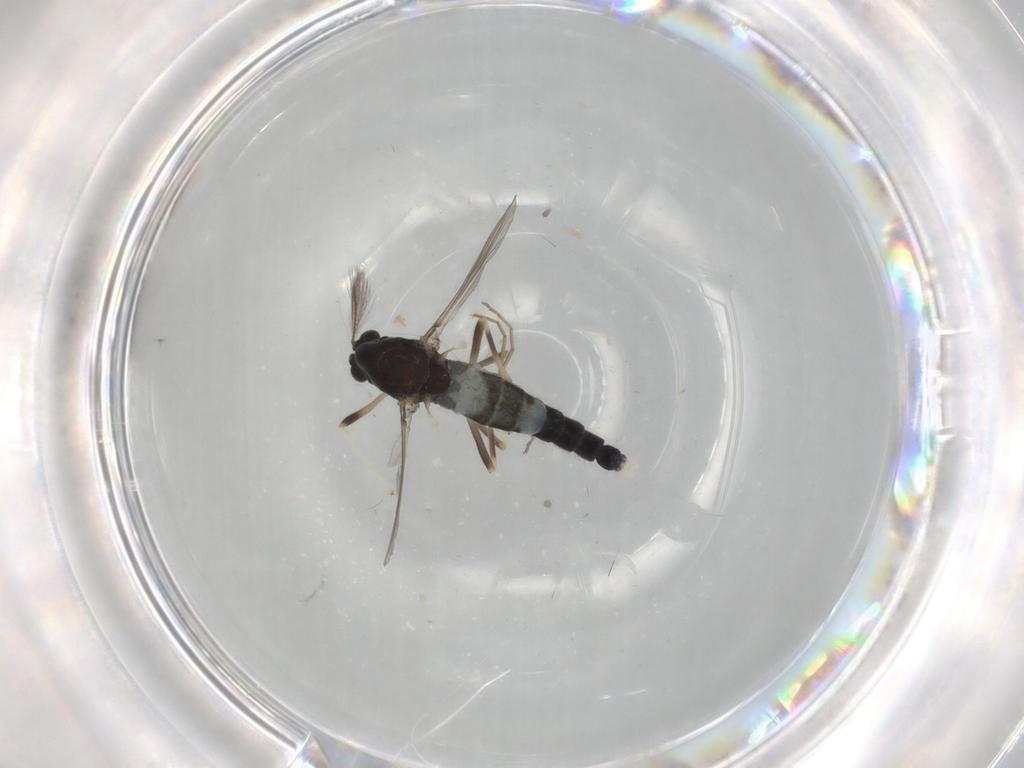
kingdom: Animalia
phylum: Arthropoda
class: Insecta
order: Diptera
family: Chironomidae
